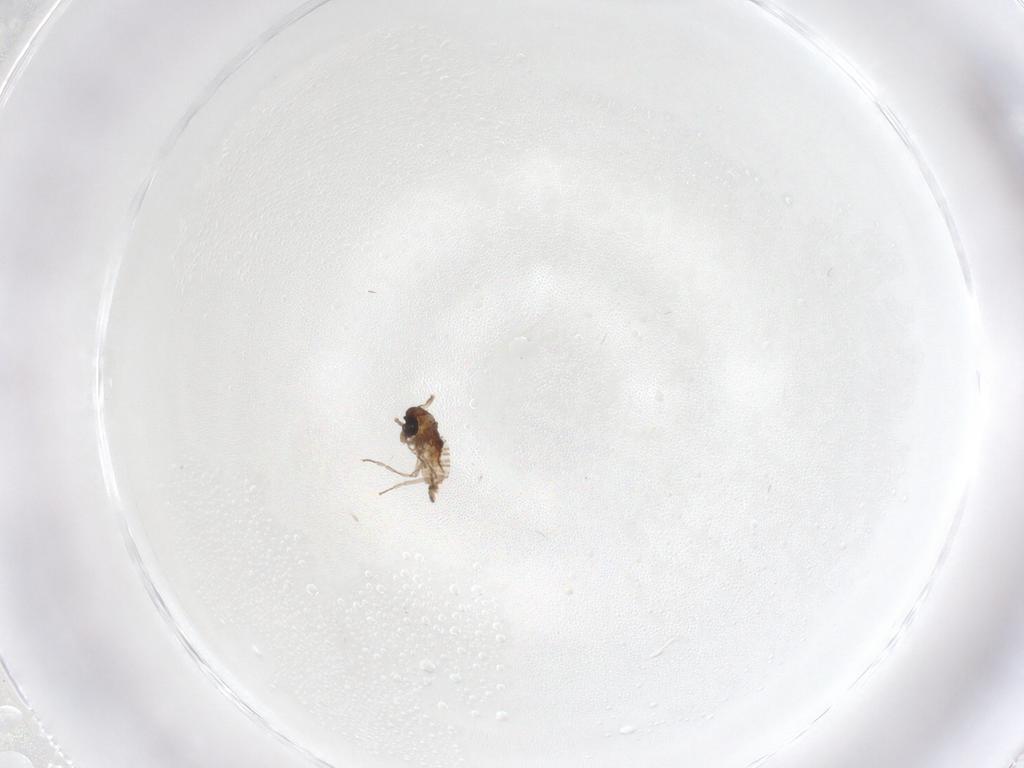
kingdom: Animalia
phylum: Arthropoda
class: Insecta
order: Diptera
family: Psychodidae
